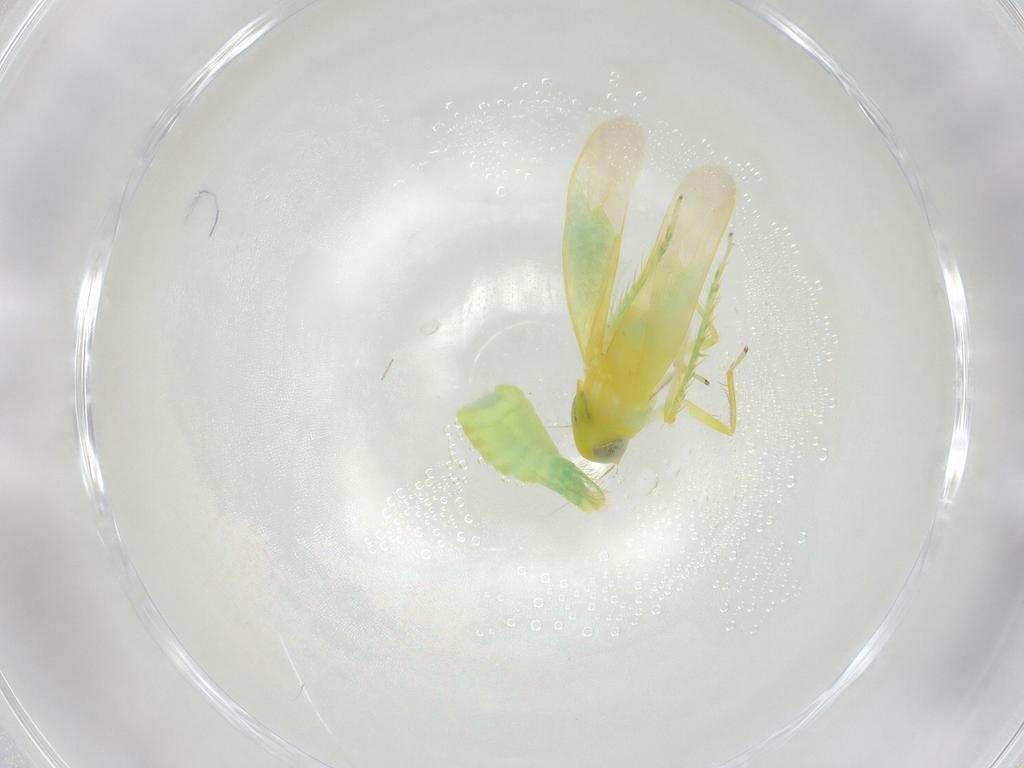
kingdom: Animalia
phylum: Arthropoda
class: Insecta
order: Hemiptera
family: Cicadellidae
